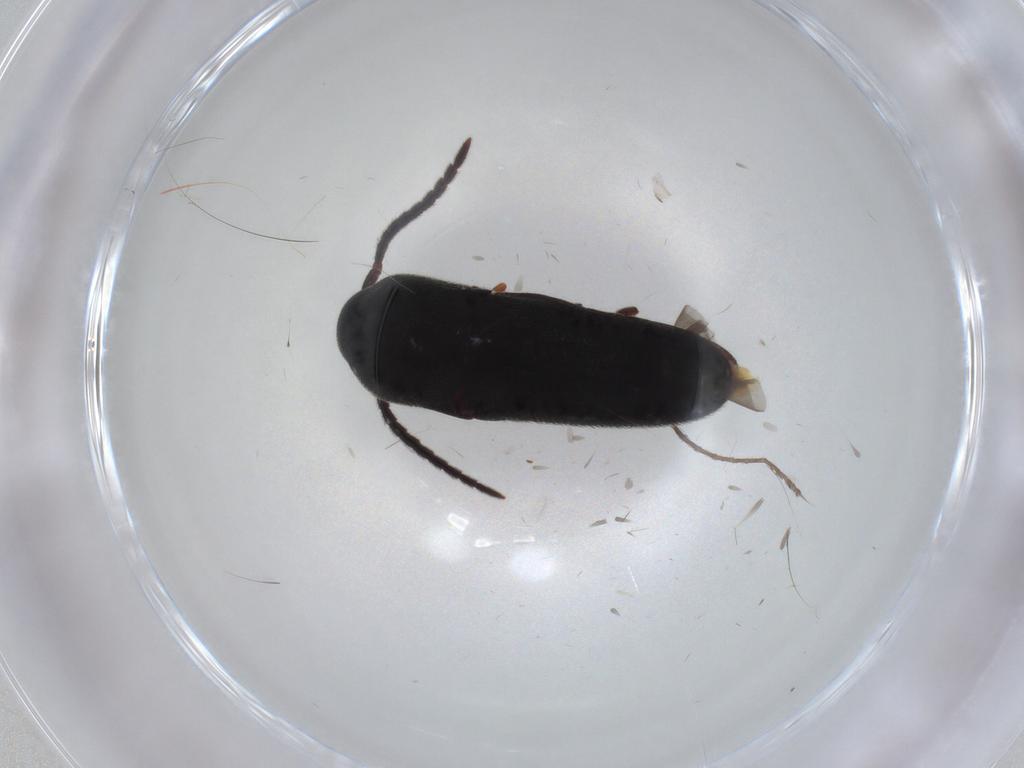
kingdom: Animalia
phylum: Arthropoda
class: Insecta
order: Coleoptera
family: Eucnemidae
